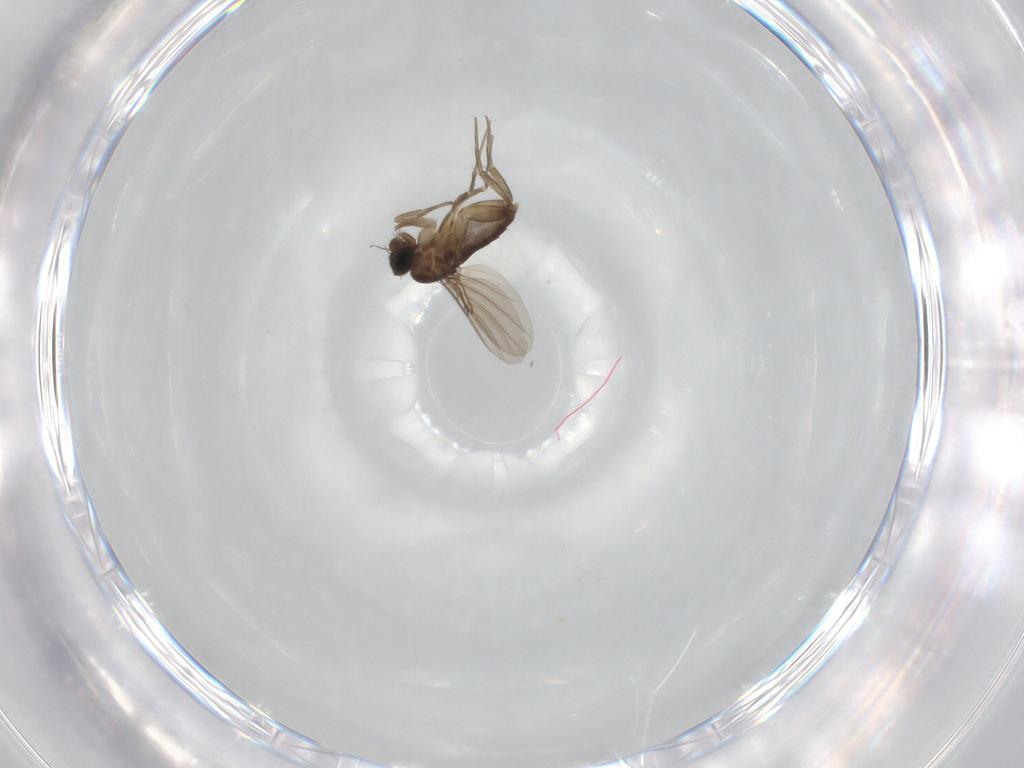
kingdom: Animalia
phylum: Arthropoda
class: Insecta
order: Diptera
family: Phoridae
